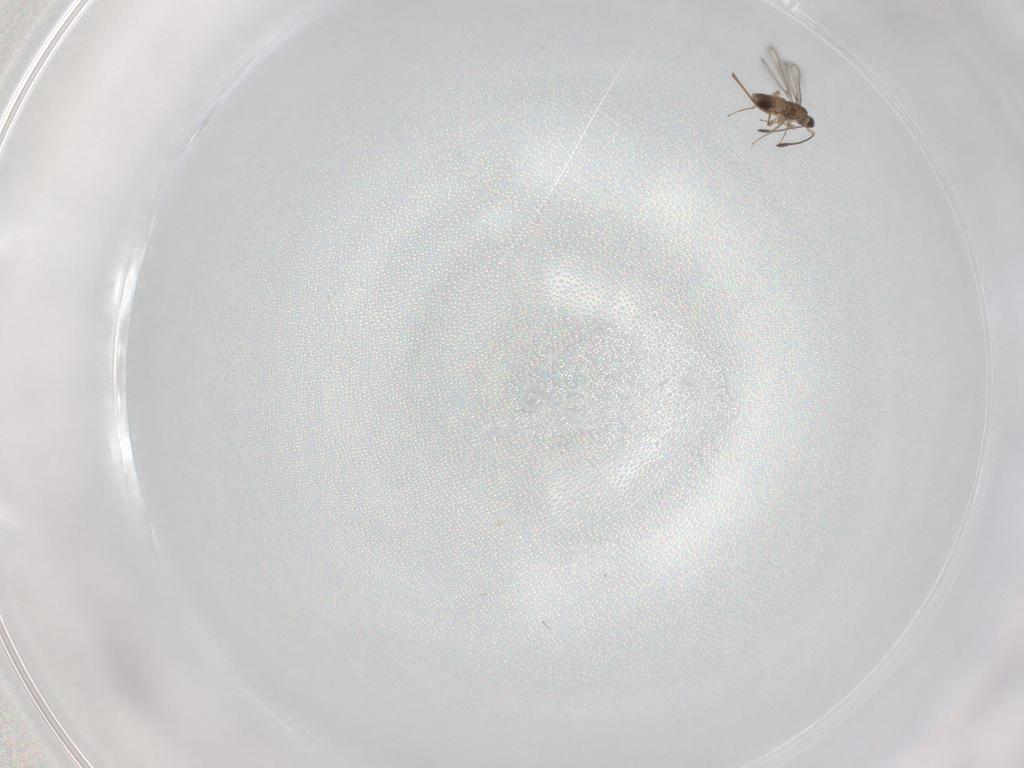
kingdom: Animalia
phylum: Arthropoda
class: Insecta
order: Hymenoptera
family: Mymaridae
